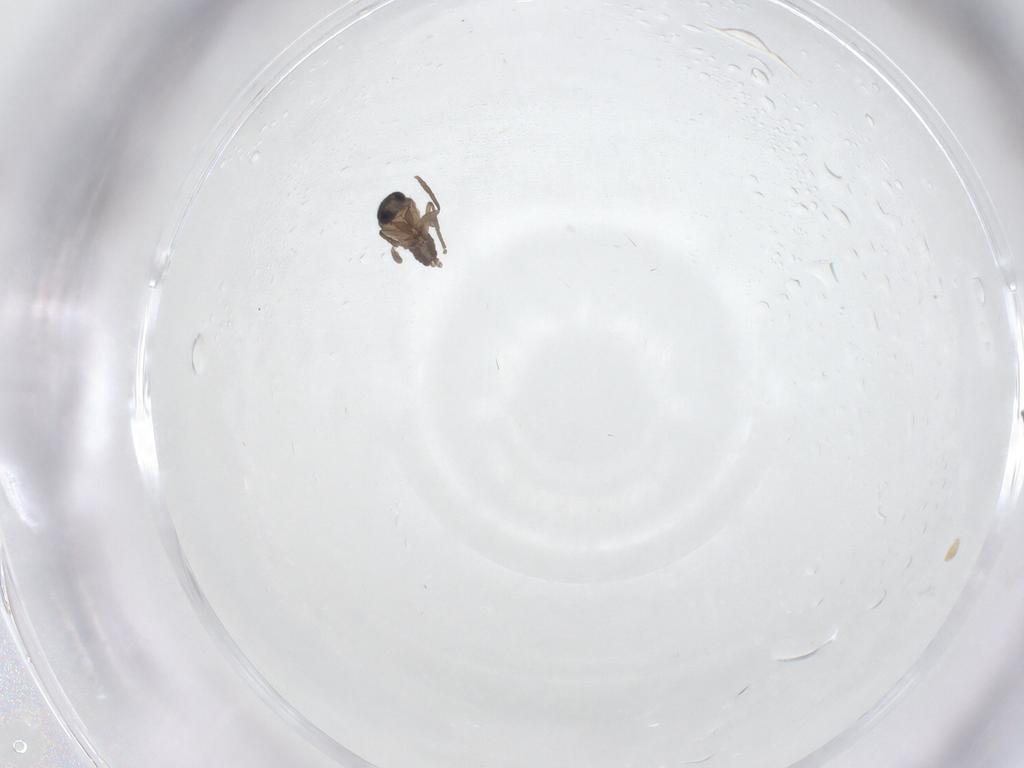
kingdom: Animalia
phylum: Arthropoda
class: Insecta
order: Diptera
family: Phoridae
